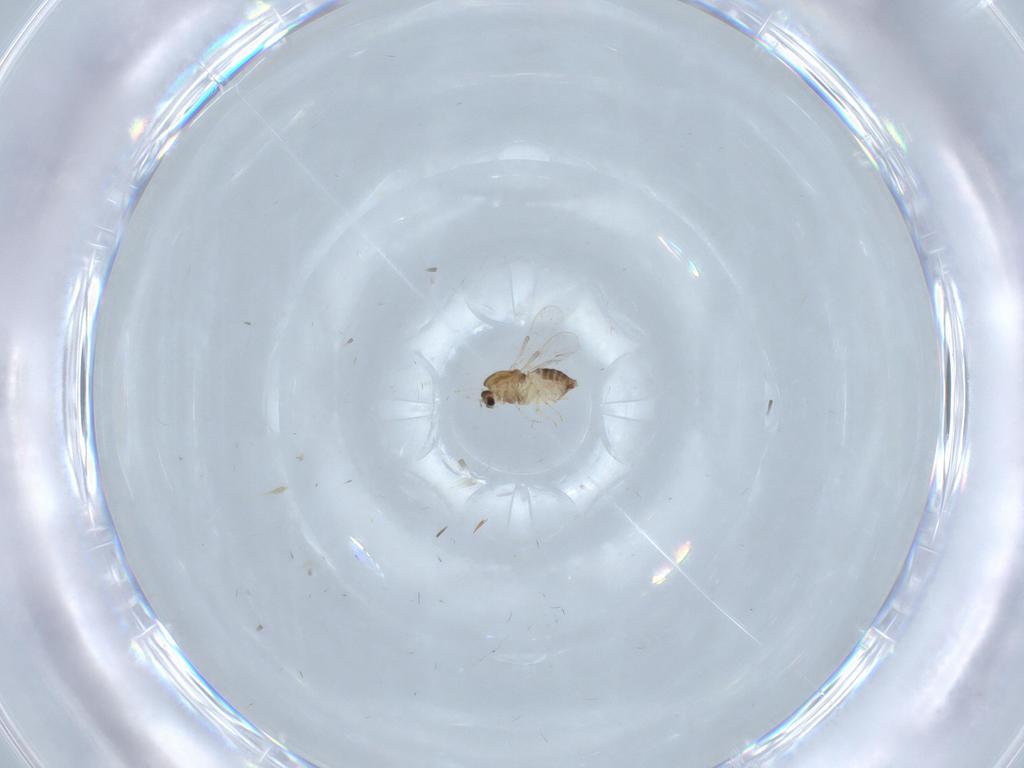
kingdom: Animalia
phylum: Arthropoda
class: Insecta
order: Diptera
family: Chironomidae
